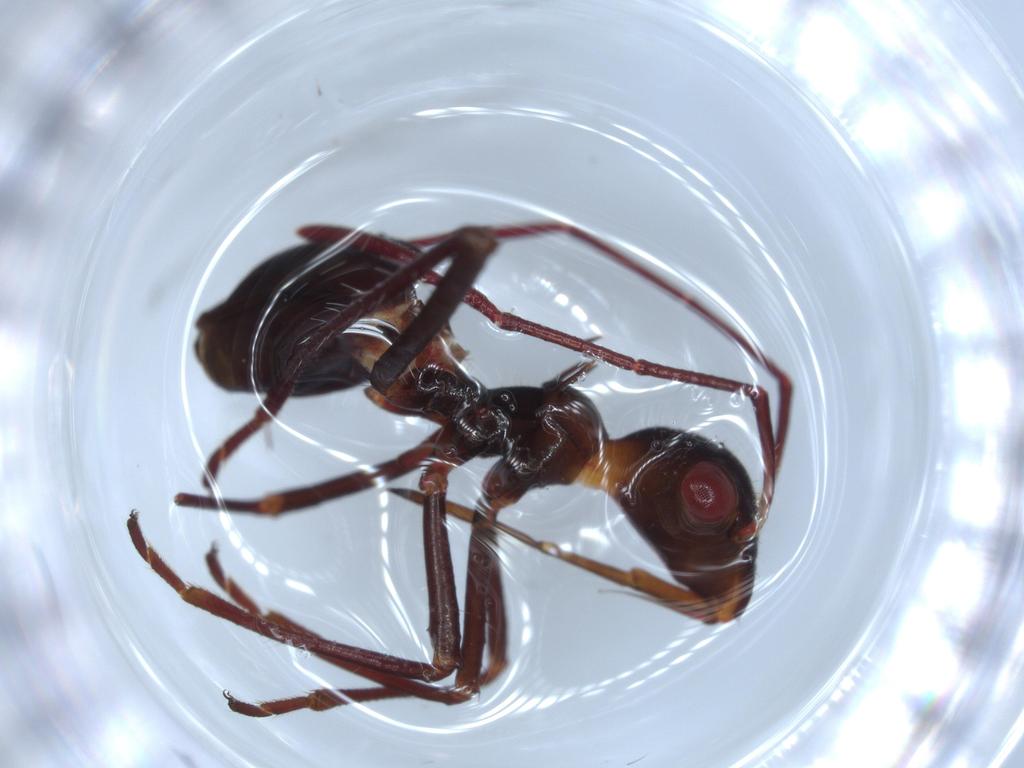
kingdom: Animalia
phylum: Arthropoda
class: Insecta
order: Hemiptera
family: Alydidae
